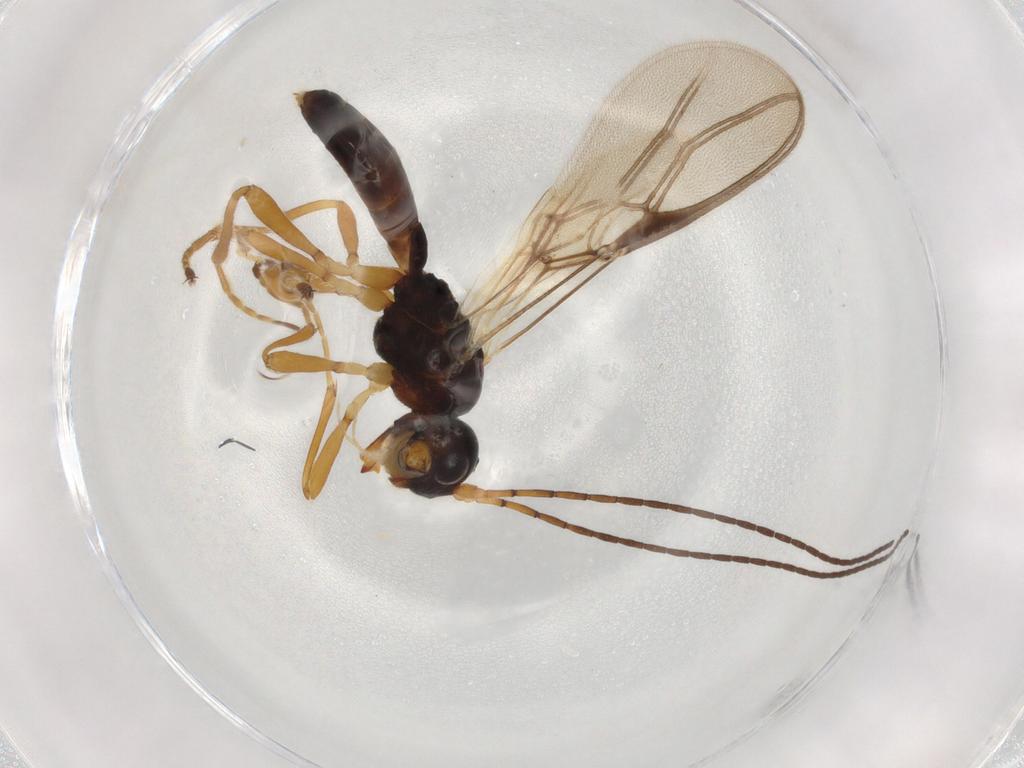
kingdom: Animalia
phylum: Arthropoda
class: Insecta
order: Hymenoptera
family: Braconidae
